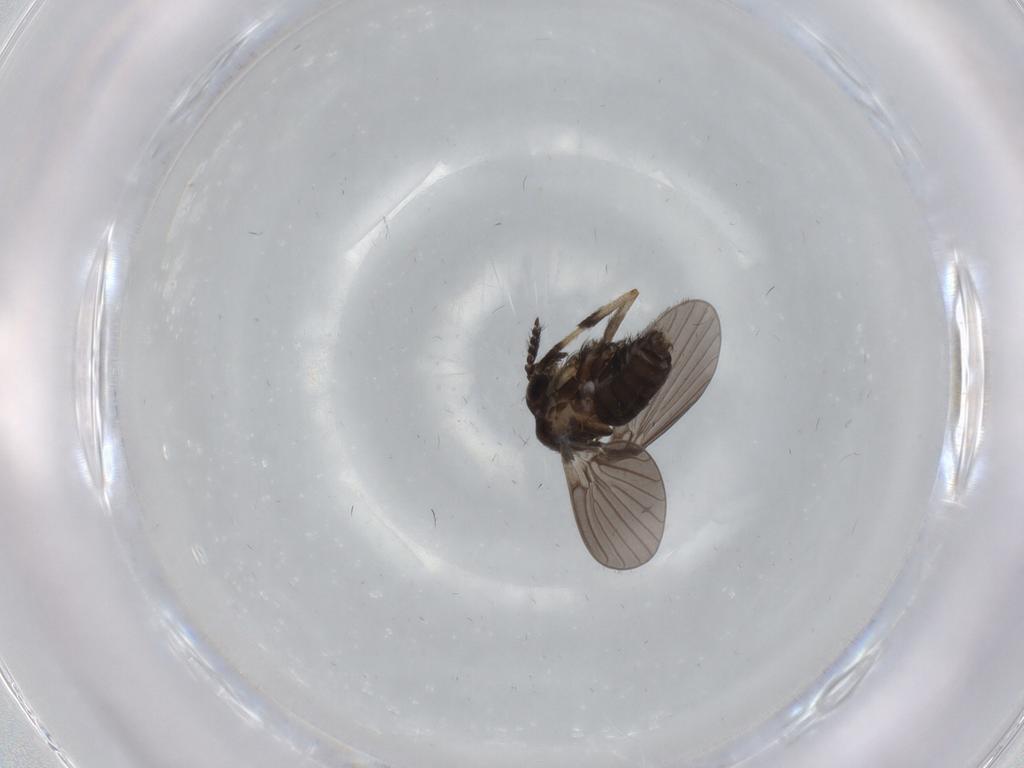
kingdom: Animalia
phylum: Arthropoda
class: Insecta
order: Diptera
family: Psychodidae
